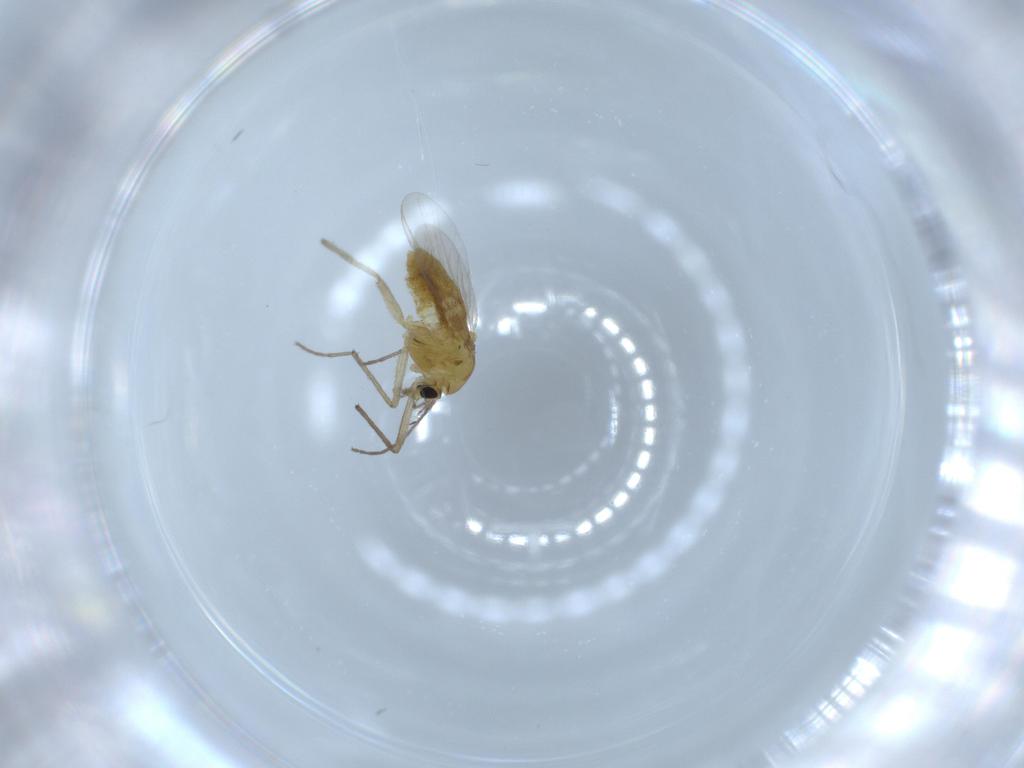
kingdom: Animalia
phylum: Arthropoda
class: Insecta
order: Diptera
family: Chironomidae
